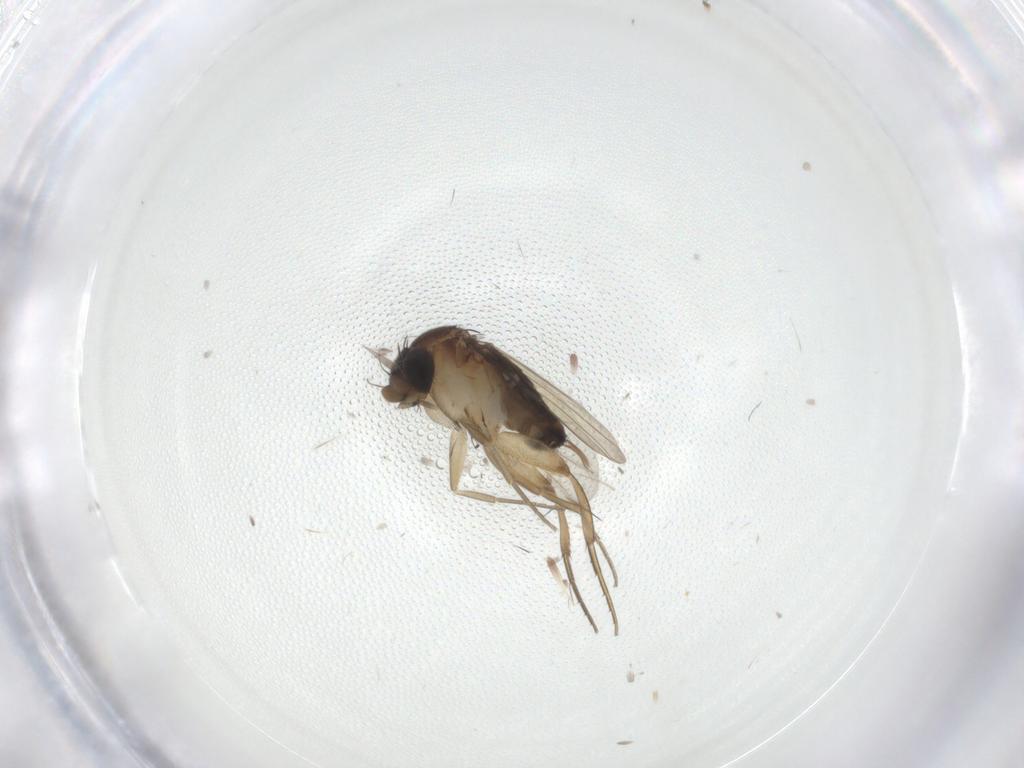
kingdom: Animalia
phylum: Arthropoda
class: Insecta
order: Diptera
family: Phoridae
